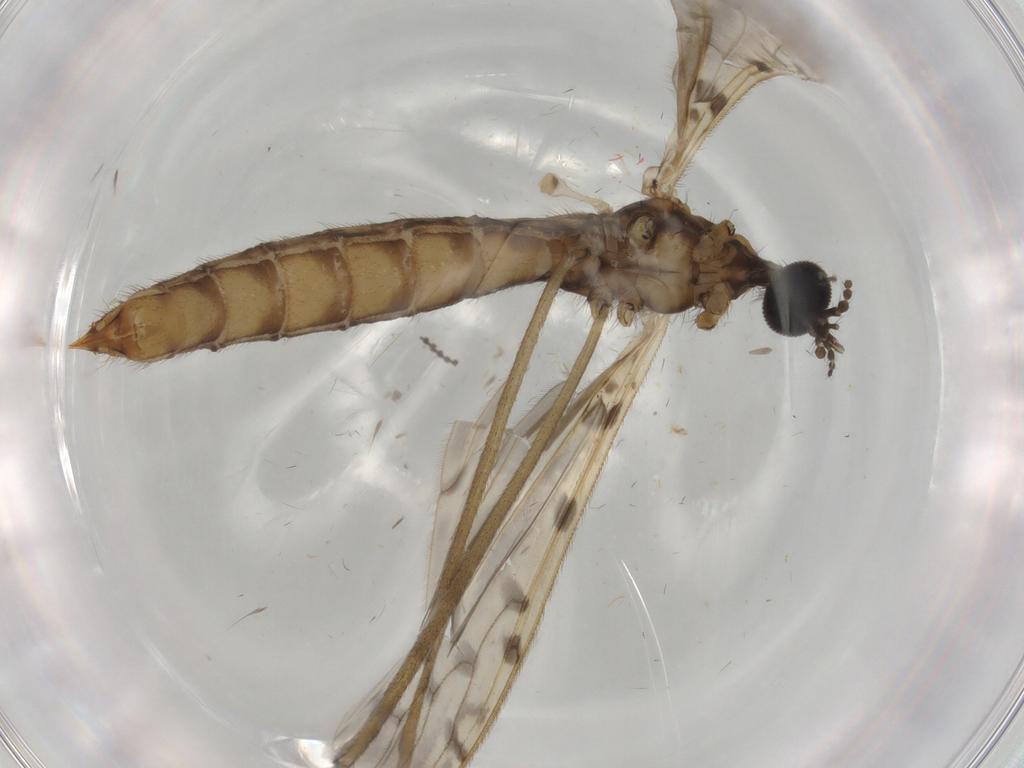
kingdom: Animalia
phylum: Arthropoda
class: Insecta
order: Diptera
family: Limoniidae
